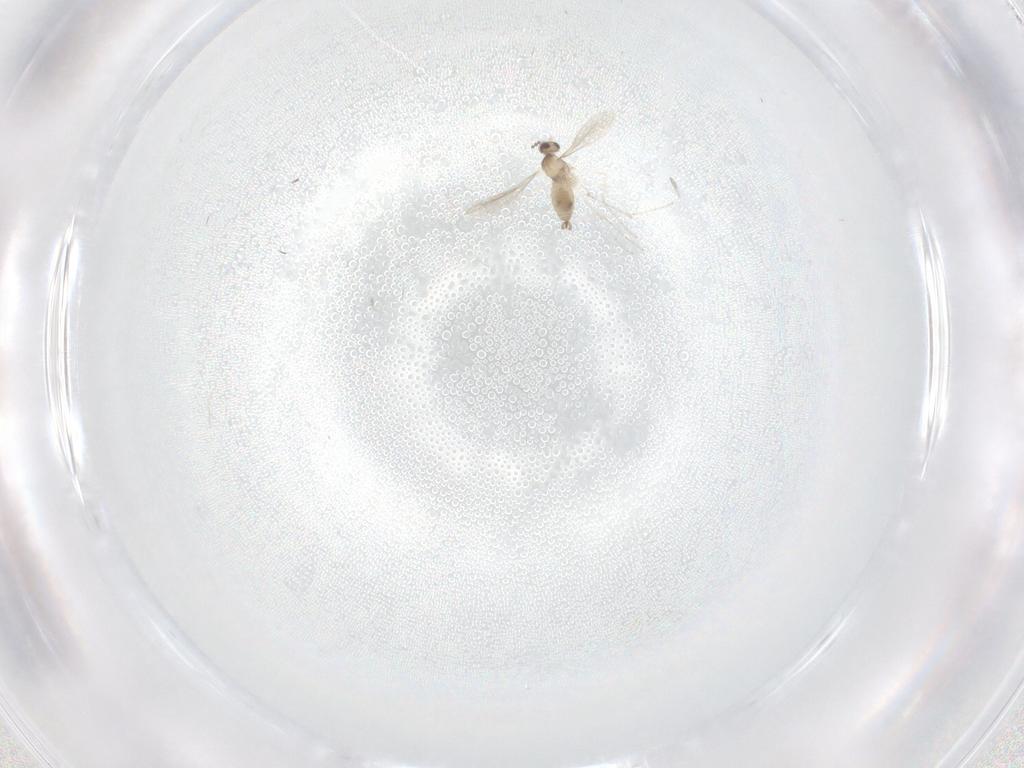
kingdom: Animalia
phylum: Arthropoda
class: Insecta
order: Diptera
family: Cecidomyiidae
